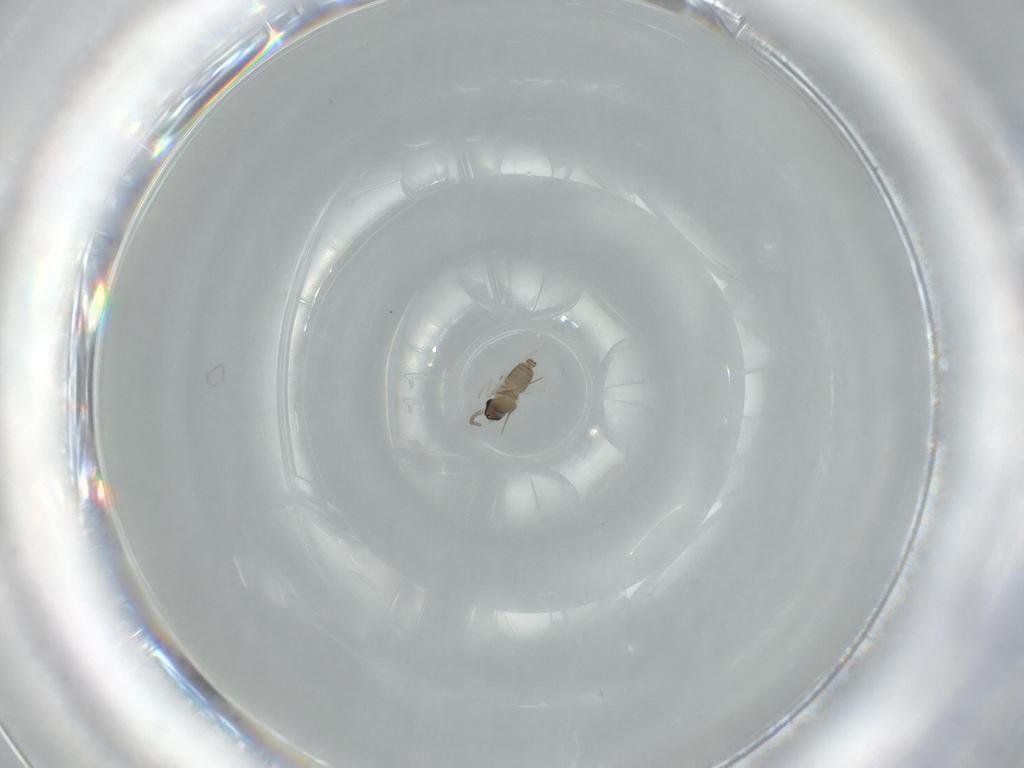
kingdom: Animalia
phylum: Arthropoda
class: Insecta
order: Diptera
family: Cecidomyiidae
